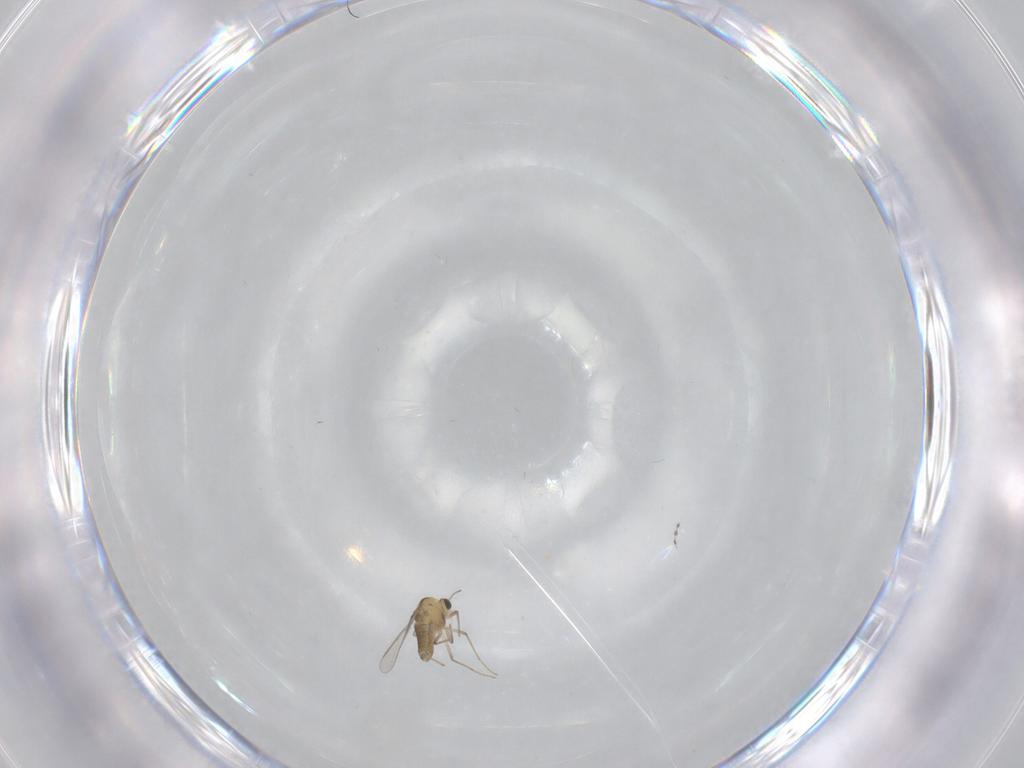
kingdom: Animalia
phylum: Arthropoda
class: Insecta
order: Diptera
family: Chironomidae
